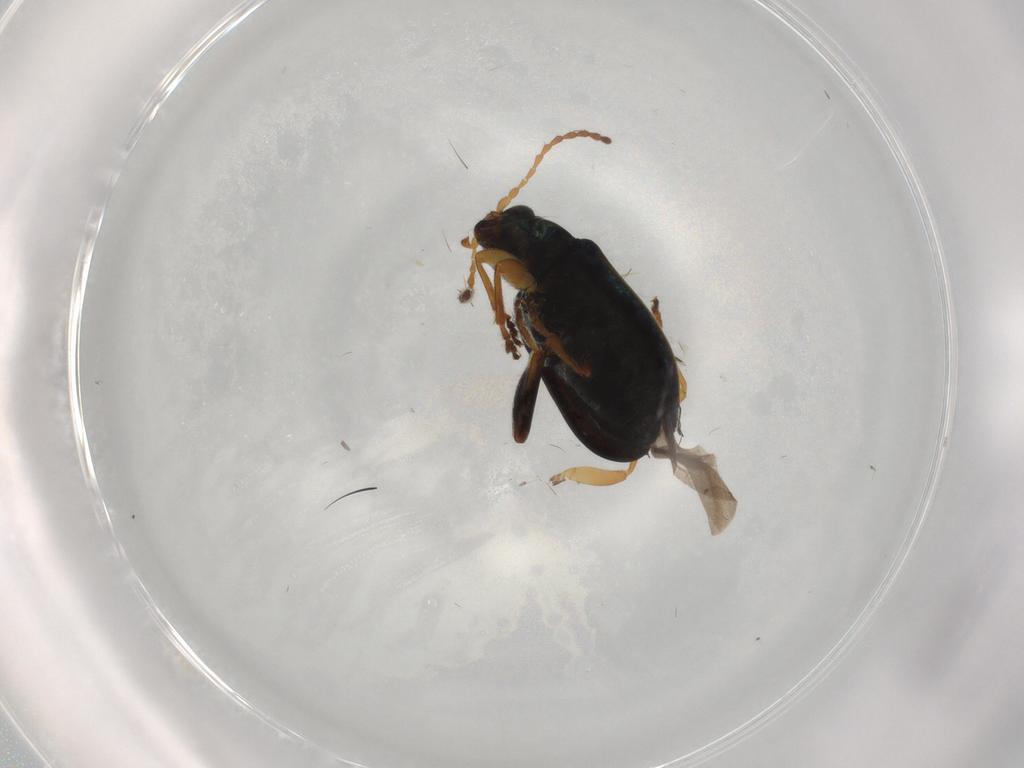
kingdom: Animalia
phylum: Arthropoda
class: Insecta
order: Coleoptera
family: Chrysomelidae
